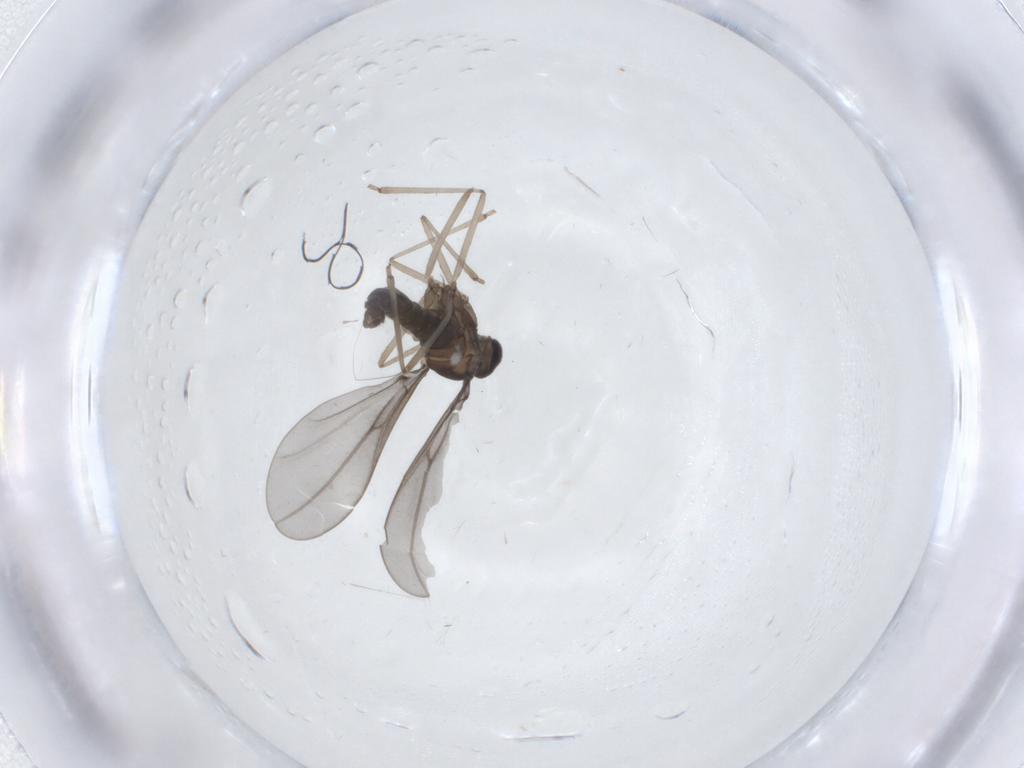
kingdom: Animalia
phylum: Arthropoda
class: Insecta
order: Diptera
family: Cecidomyiidae
